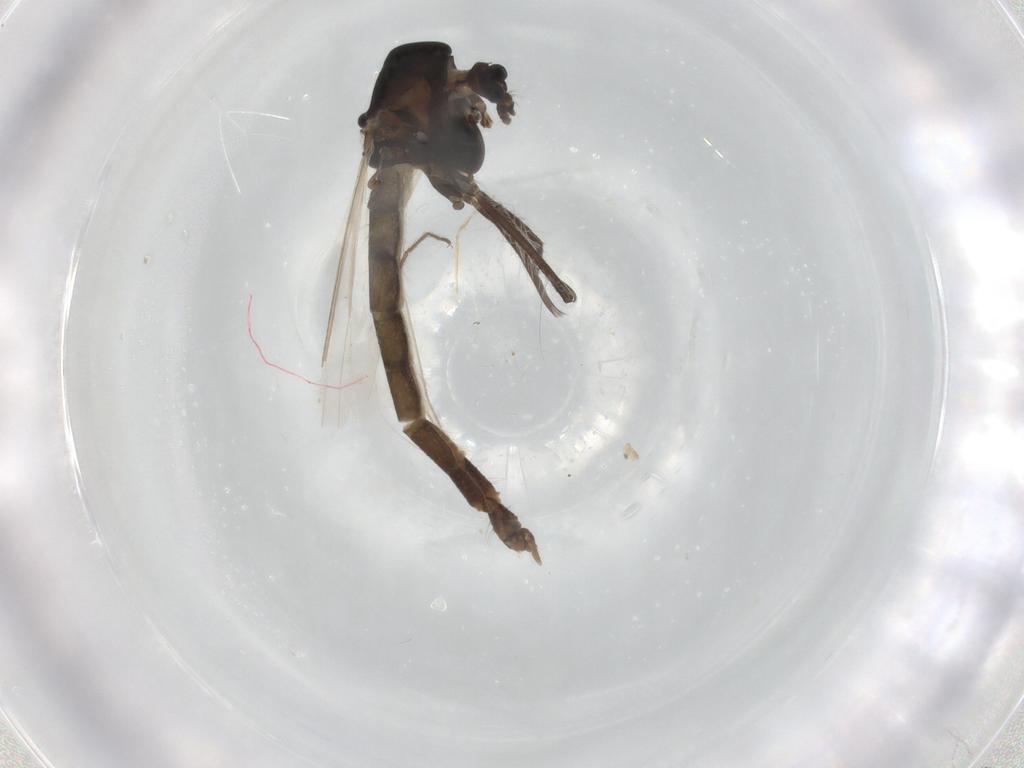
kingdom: Animalia
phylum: Arthropoda
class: Insecta
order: Diptera
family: Chironomidae
